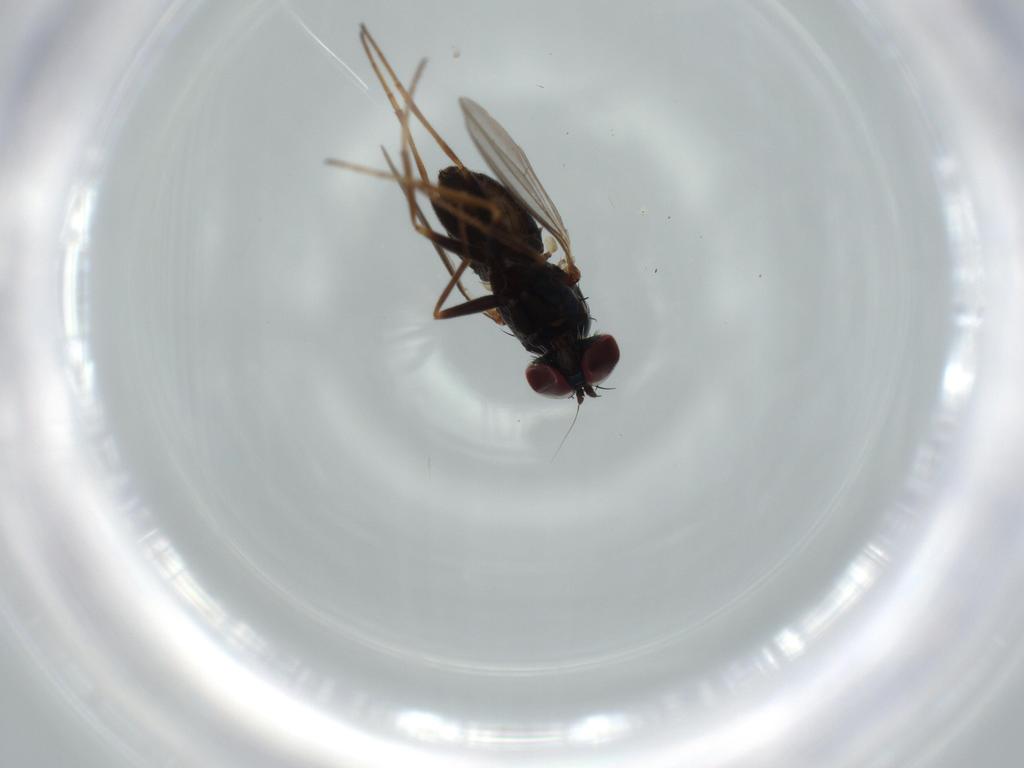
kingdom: Animalia
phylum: Arthropoda
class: Insecta
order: Diptera
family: Dolichopodidae
